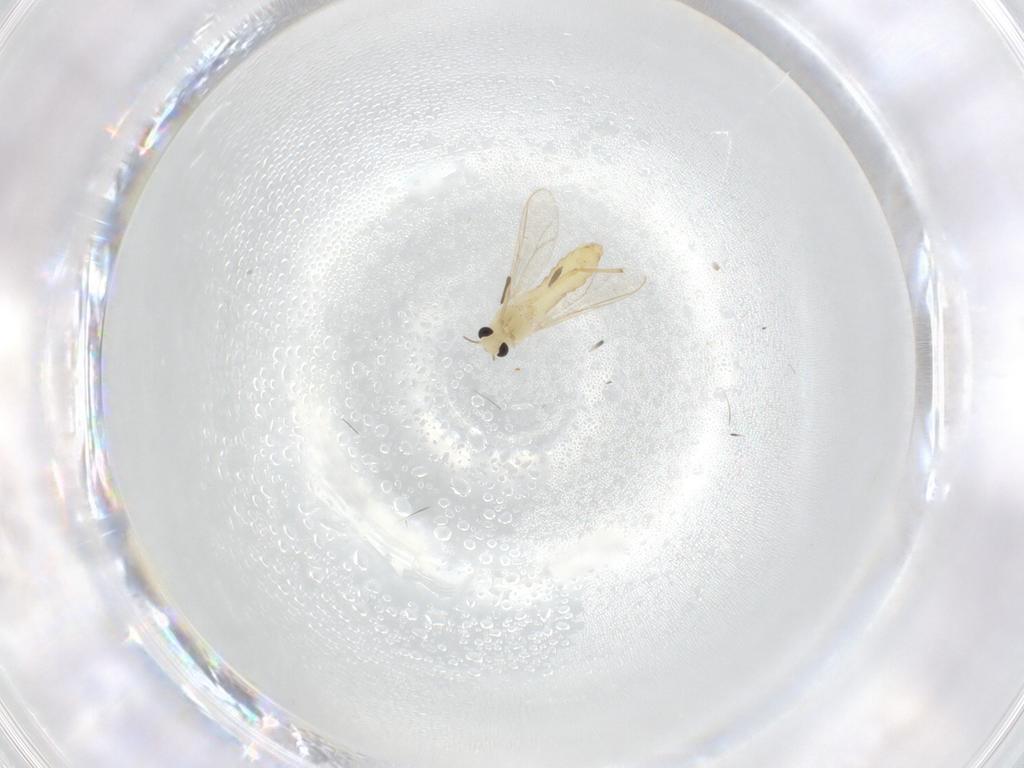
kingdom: Animalia
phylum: Arthropoda
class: Insecta
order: Diptera
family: Chironomidae
